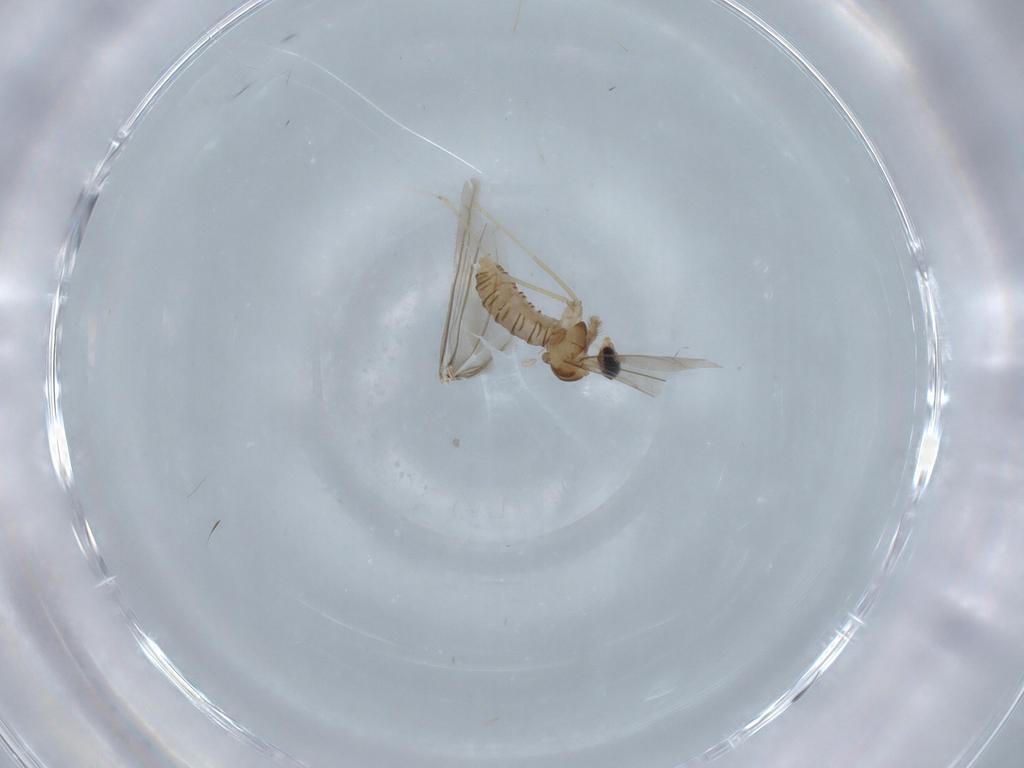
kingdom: Animalia
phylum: Arthropoda
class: Insecta
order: Diptera
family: Cecidomyiidae
